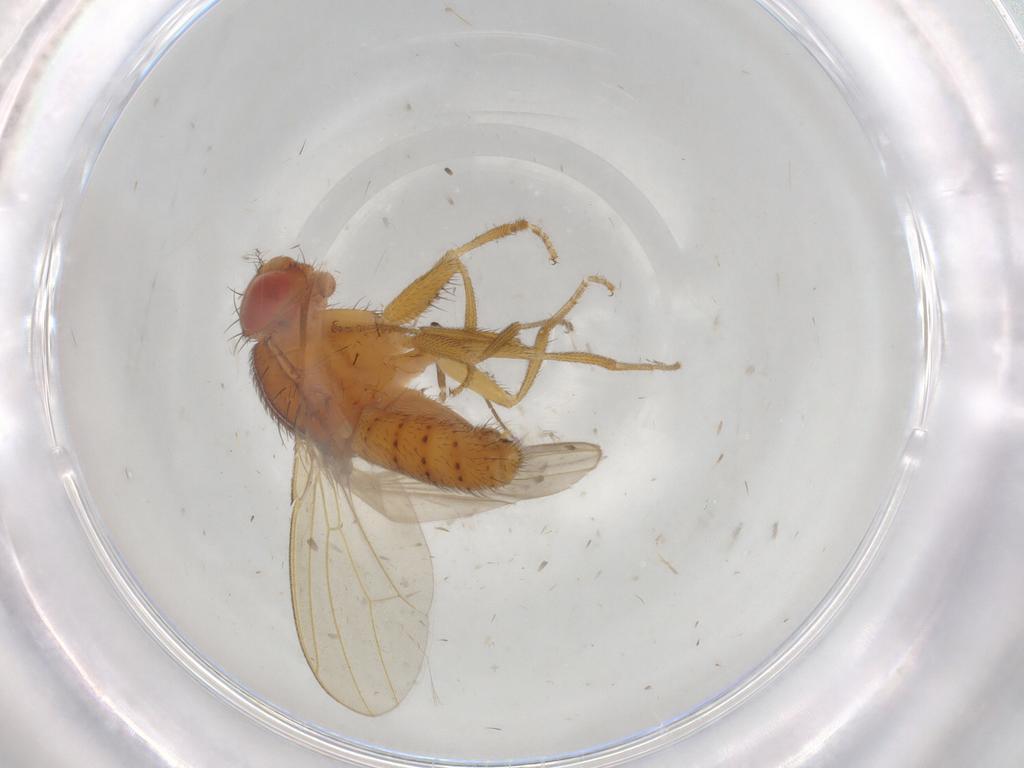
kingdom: Animalia
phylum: Arthropoda
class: Insecta
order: Diptera
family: Drosophilidae
